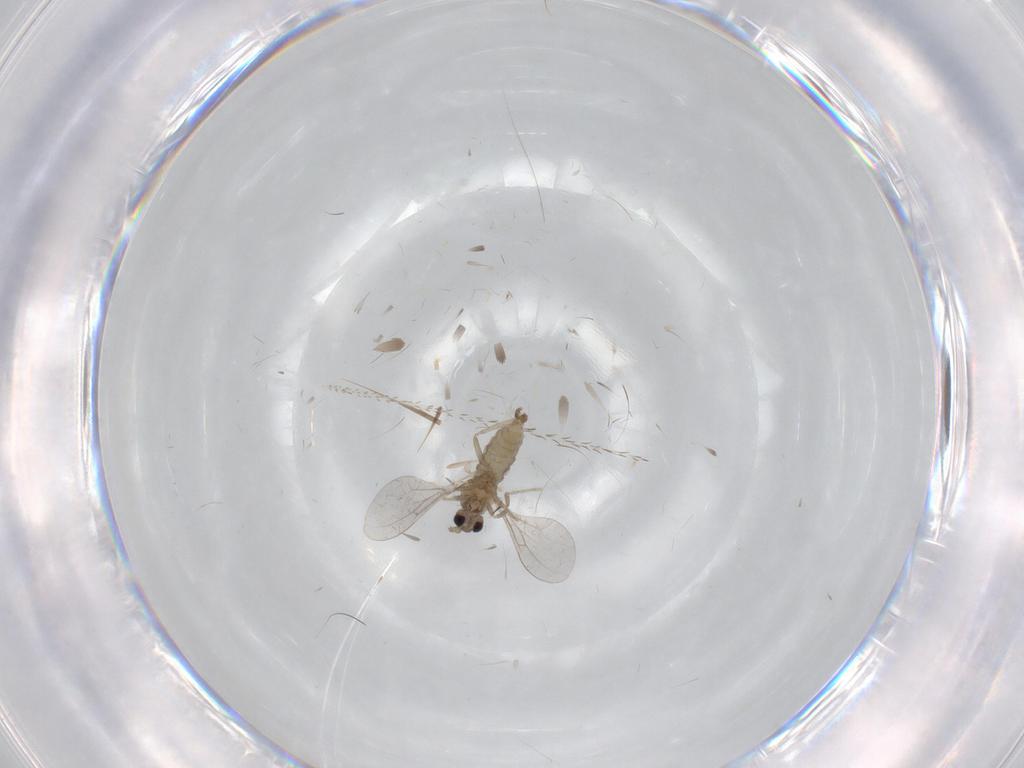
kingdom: Animalia
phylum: Arthropoda
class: Insecta
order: Diptera
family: Cecidomyiidae
